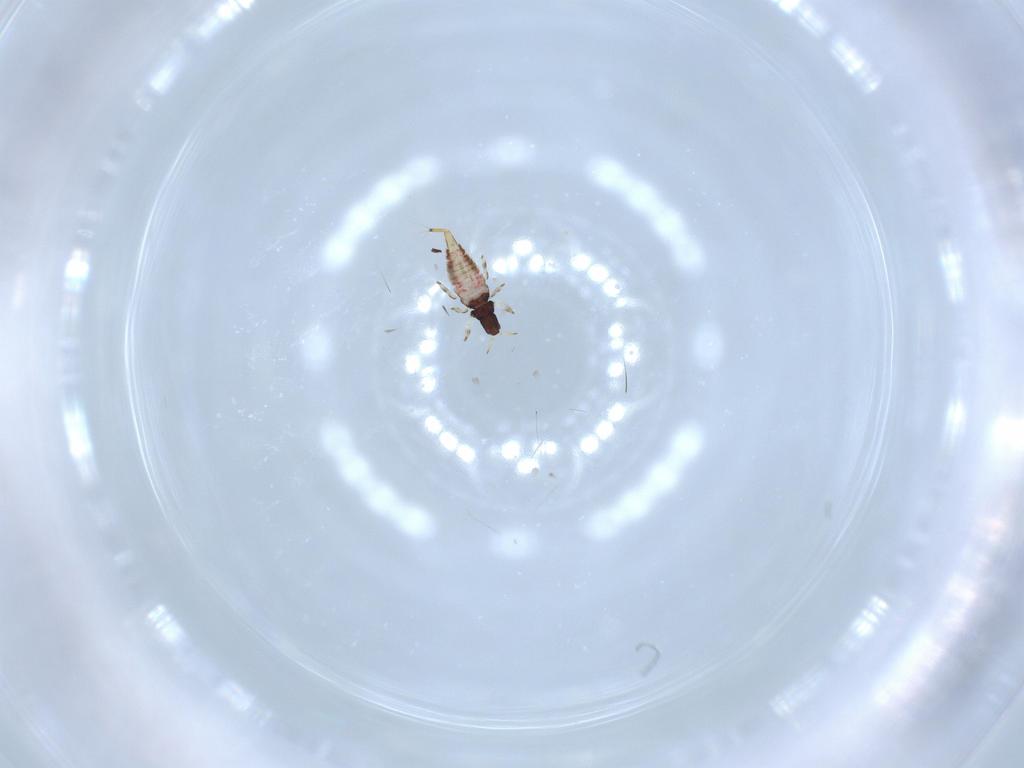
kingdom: Animalia
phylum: Arthropoda
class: Insecta
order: Thysanoptera
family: Phlaeothripidae
